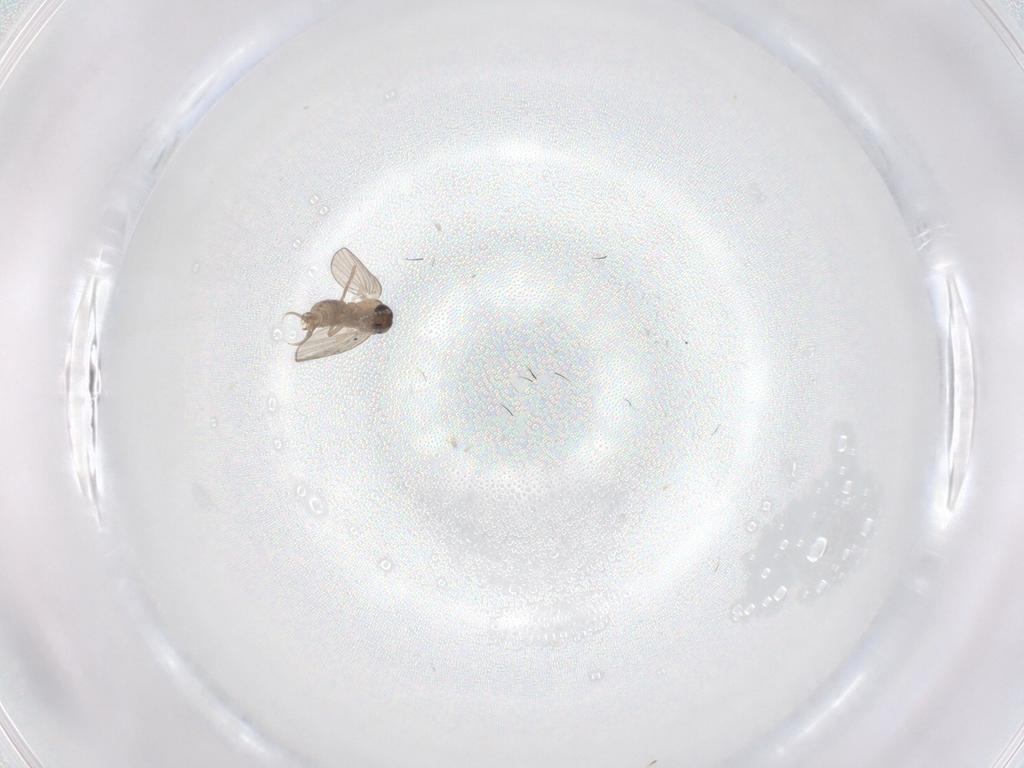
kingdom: Animalia
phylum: Arthropoda
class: Insecta
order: Diptera
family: Psychodidae
